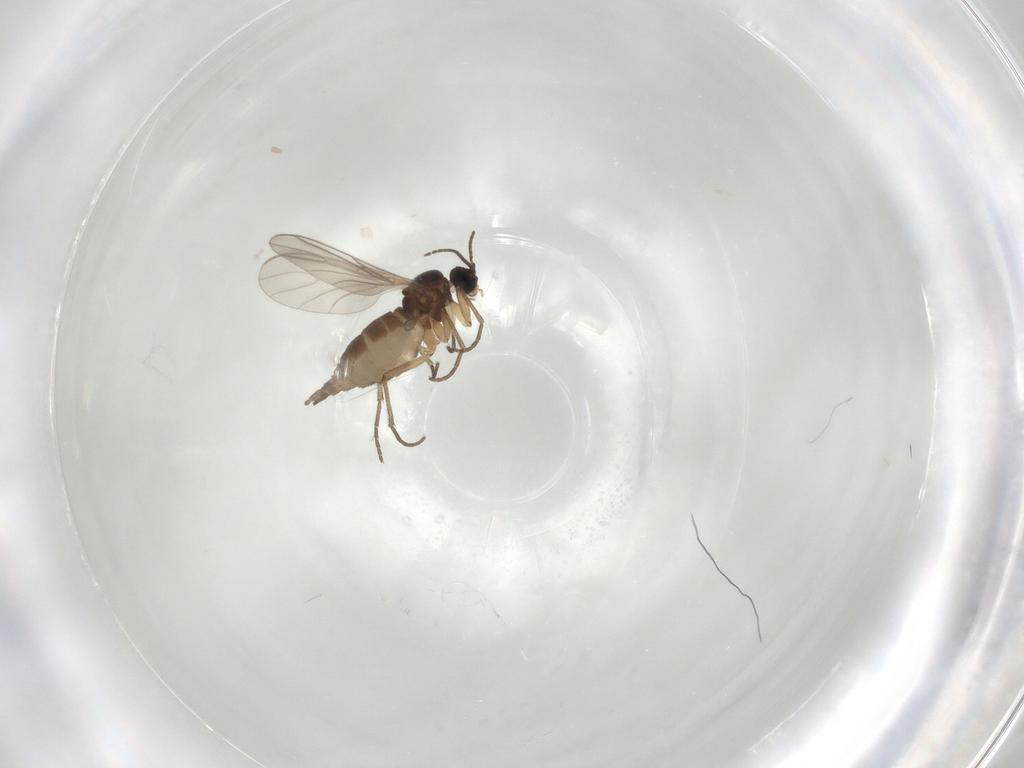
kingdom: Animalia
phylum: Arthropoda
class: Insecta
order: Diptera
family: Sciaridae
